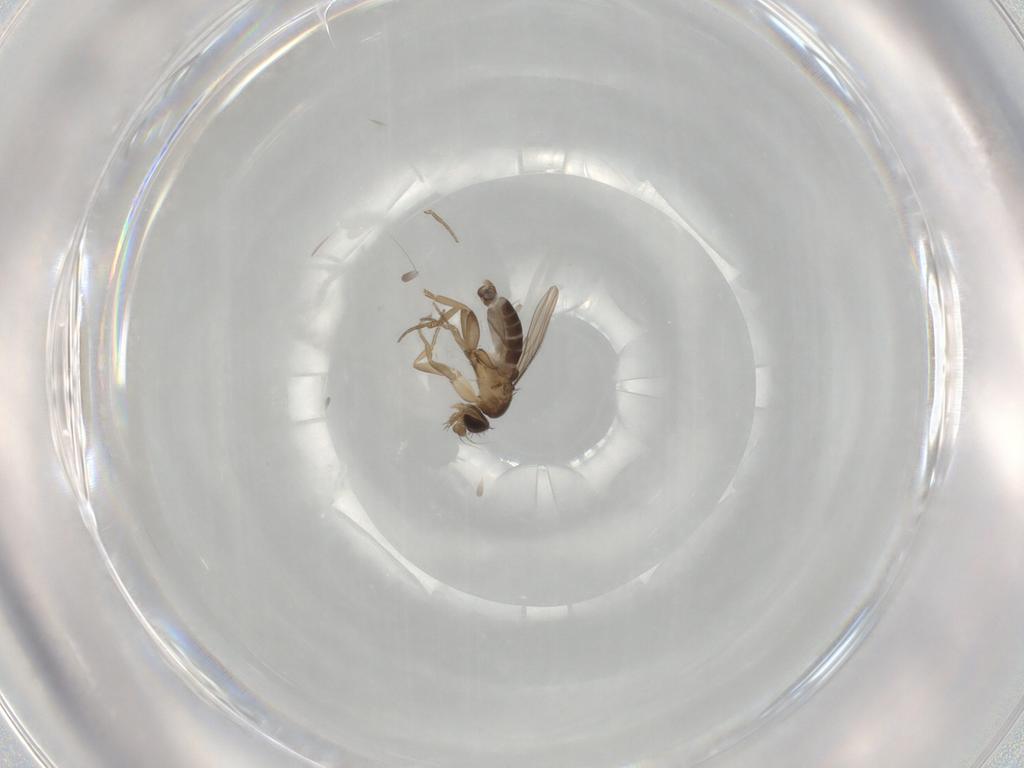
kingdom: Animalia
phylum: Arthropoda
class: Insecta
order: Diptera
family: Phoridae
